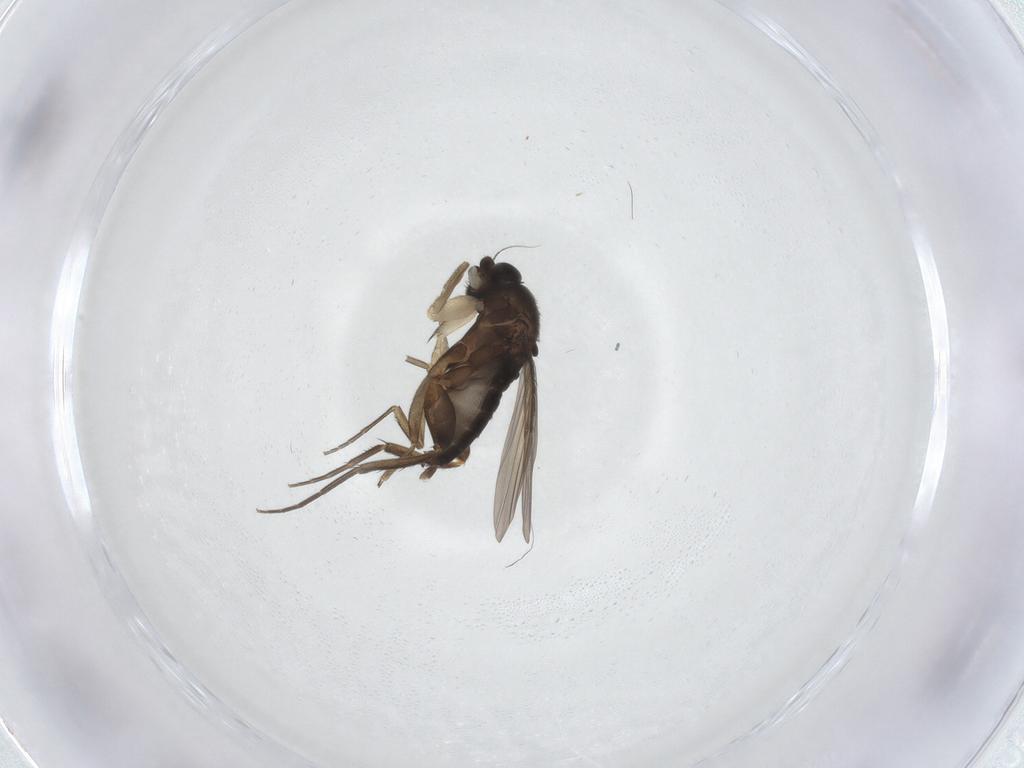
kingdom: Animalia
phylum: Arthropoda
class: Insecta
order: Diptera
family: Phoridae
